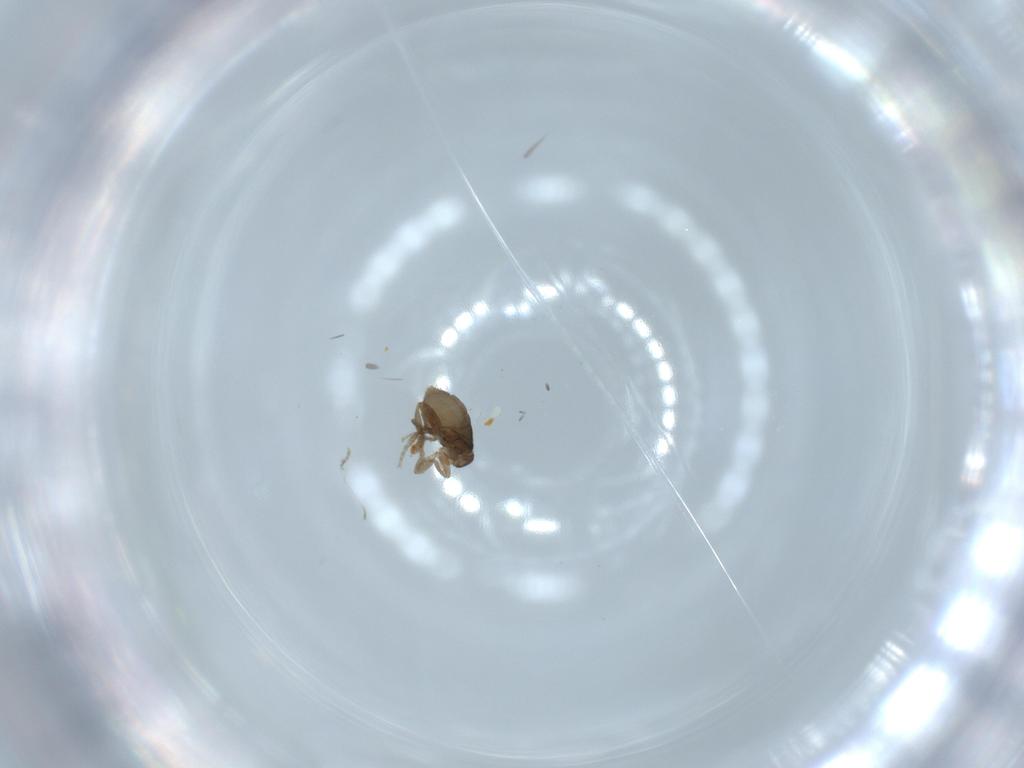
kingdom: Animalia
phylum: Arthropoda
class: Insecta
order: Diptera
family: Phoridae
